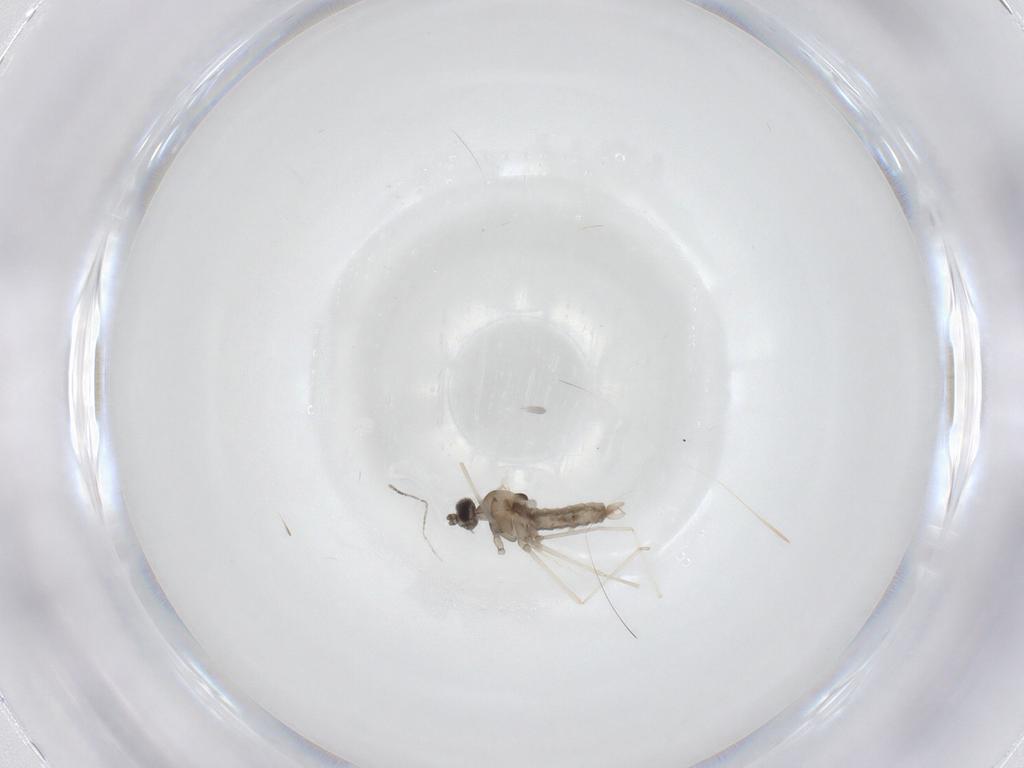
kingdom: Animalia
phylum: Arthropoda
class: Insecta
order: Diptera
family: Cecidomyiidae
